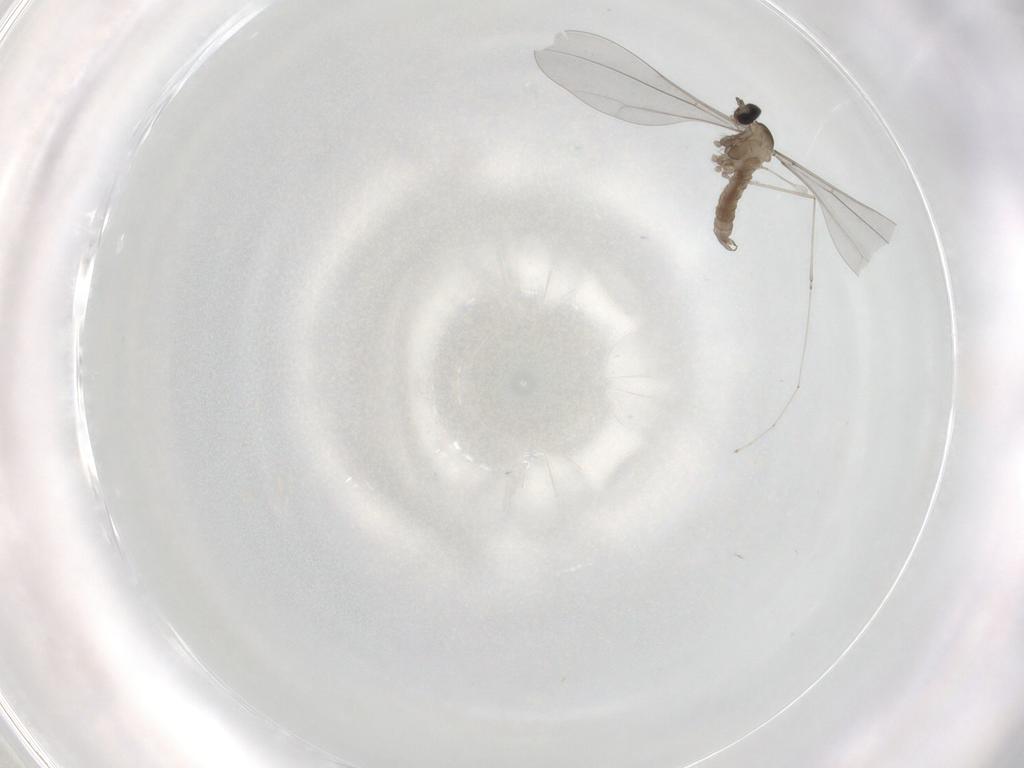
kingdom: Animalia
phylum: Arthropoda
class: Insecta
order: Diptera
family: Cecidomyiidae
